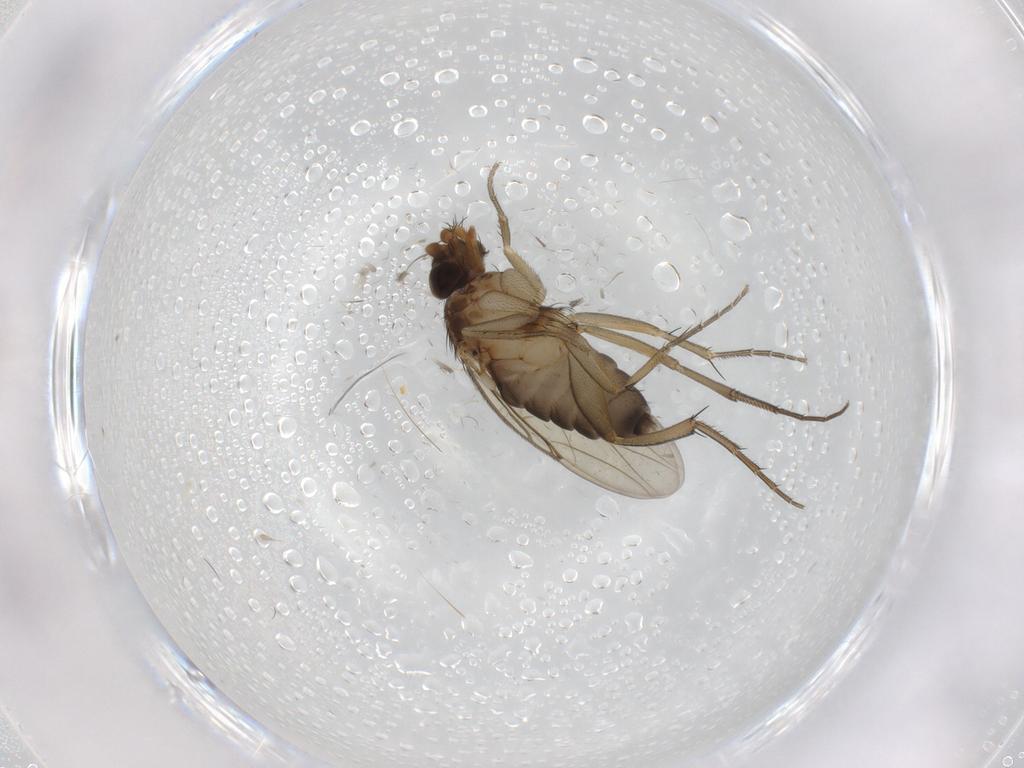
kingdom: Animalia
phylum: Arthropoda
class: Insecta
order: Diptera
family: Phoridae
